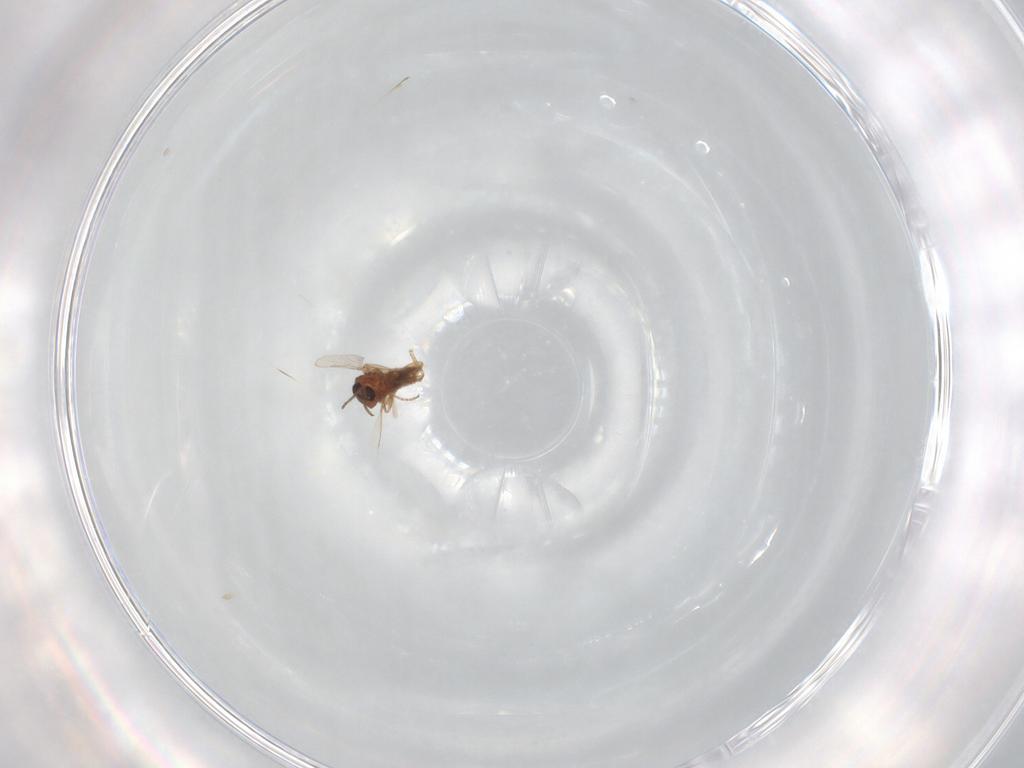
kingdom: Animalia
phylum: Arthropoda
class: Insecta
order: Diptera
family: Ceratopogonidae
